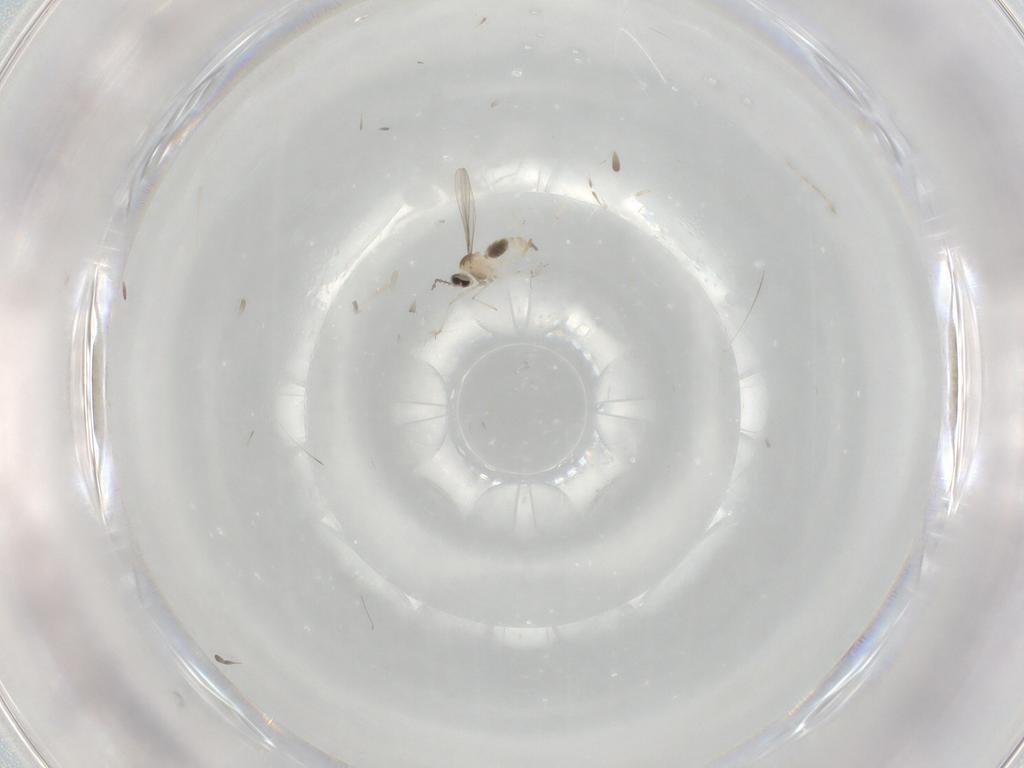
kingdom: Animalia
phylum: Arthropoda
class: Insecta
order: Diptera
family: Cecidomyiidae
